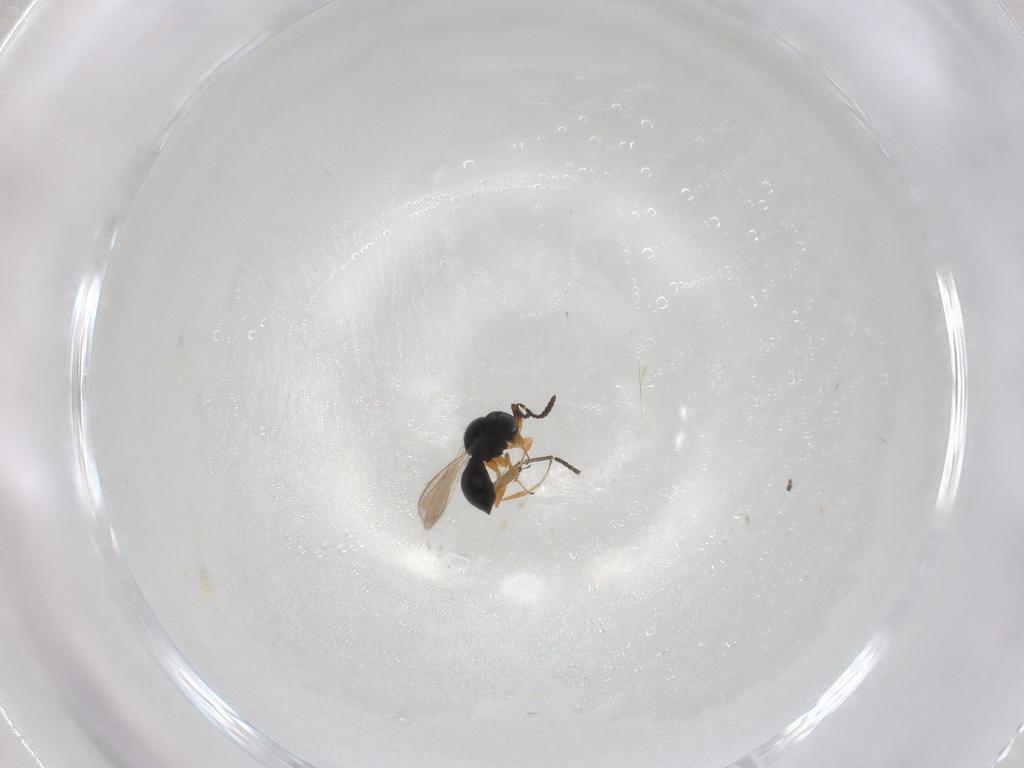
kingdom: Animalia
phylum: Arthropoda
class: Insecta
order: Hymenoptera
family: Scelionidae
